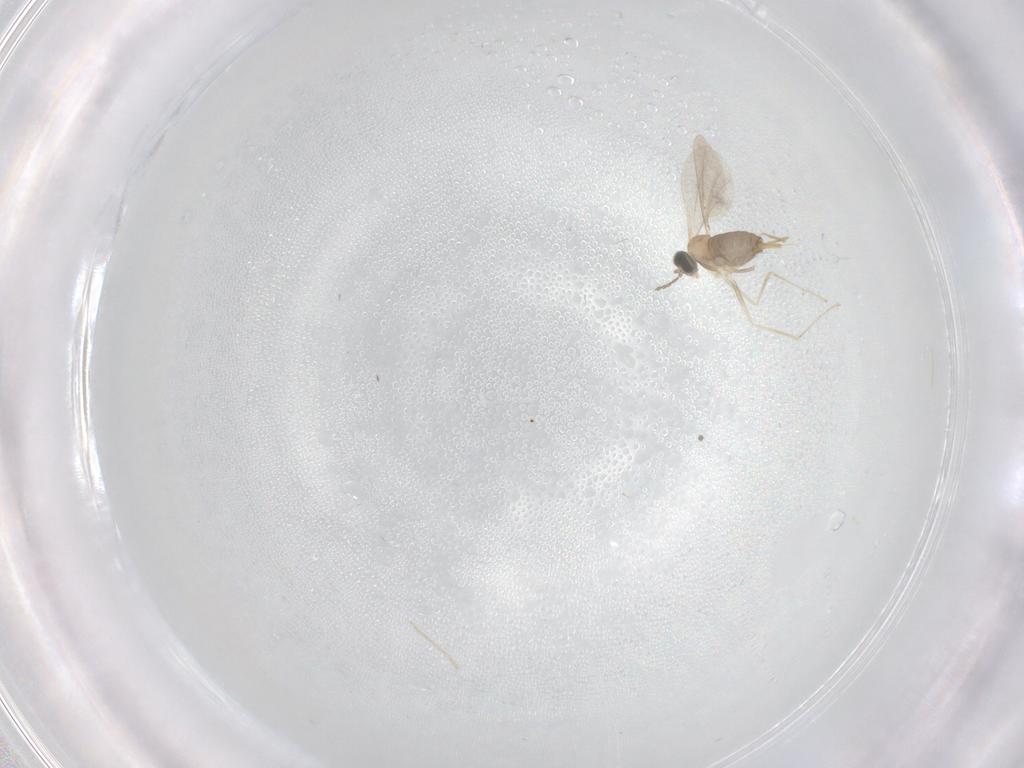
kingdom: Animalia
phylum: Arthropoda
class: Insecta
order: Diptera
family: Cecidomyiidae
